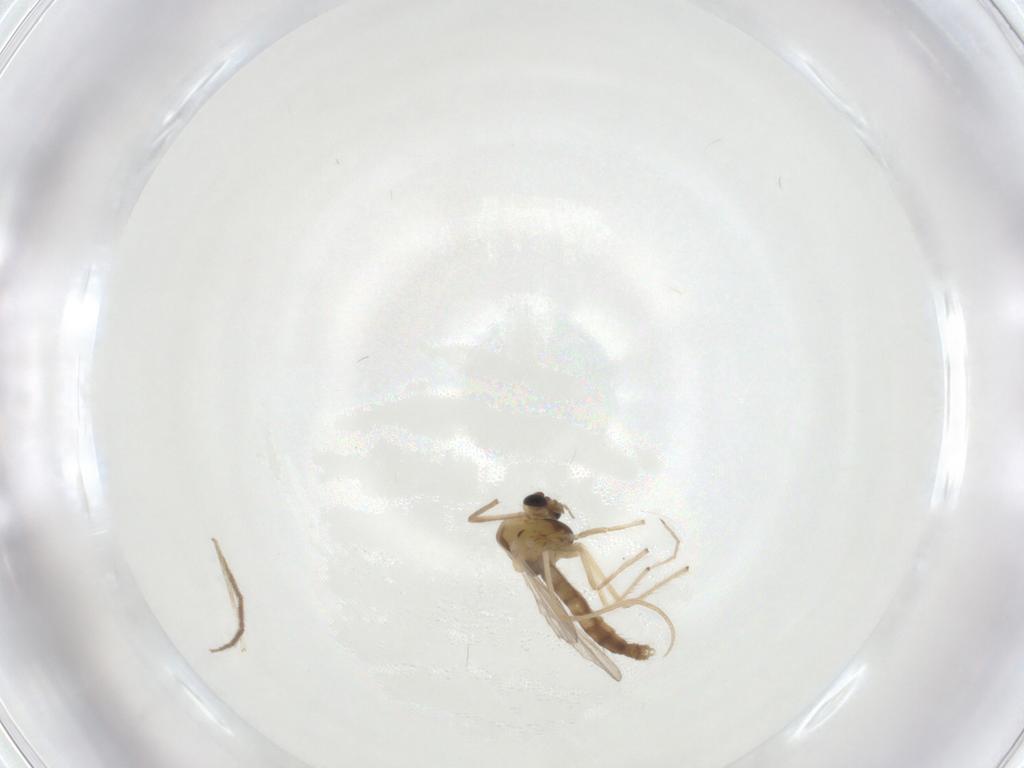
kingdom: Animalia
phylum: Arthropoda
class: Insecta
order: Diptera
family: Chironomidae
